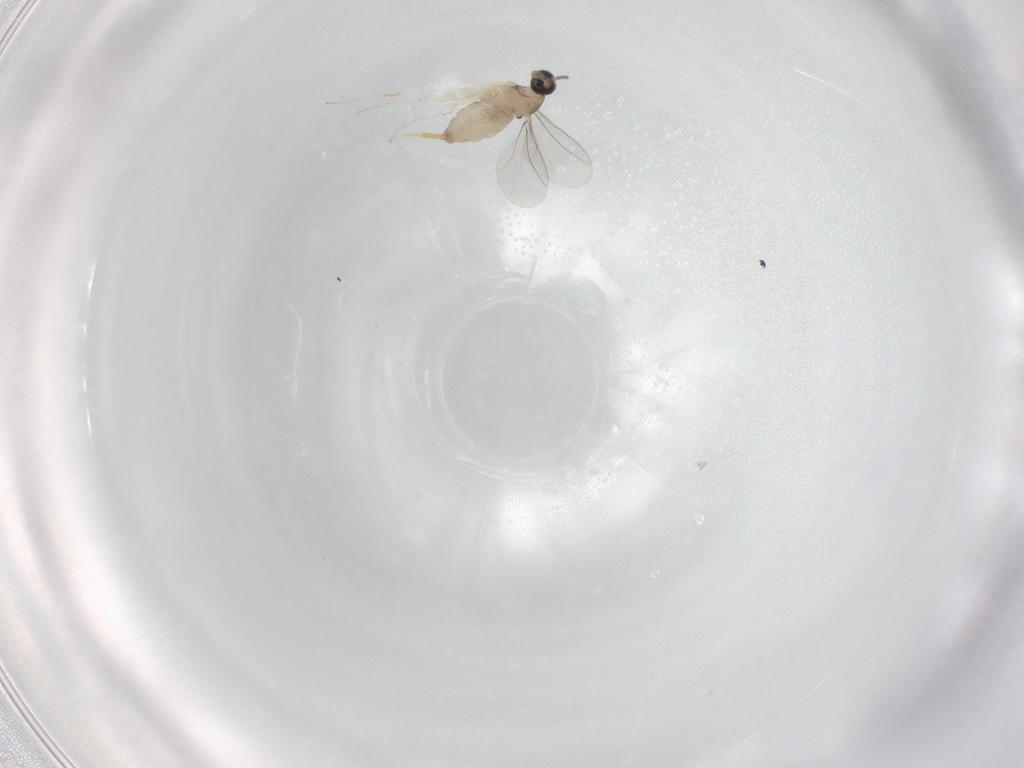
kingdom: Animalia
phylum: Arthropoda
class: Insecta
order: Diptera
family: Cecidomyiidae
